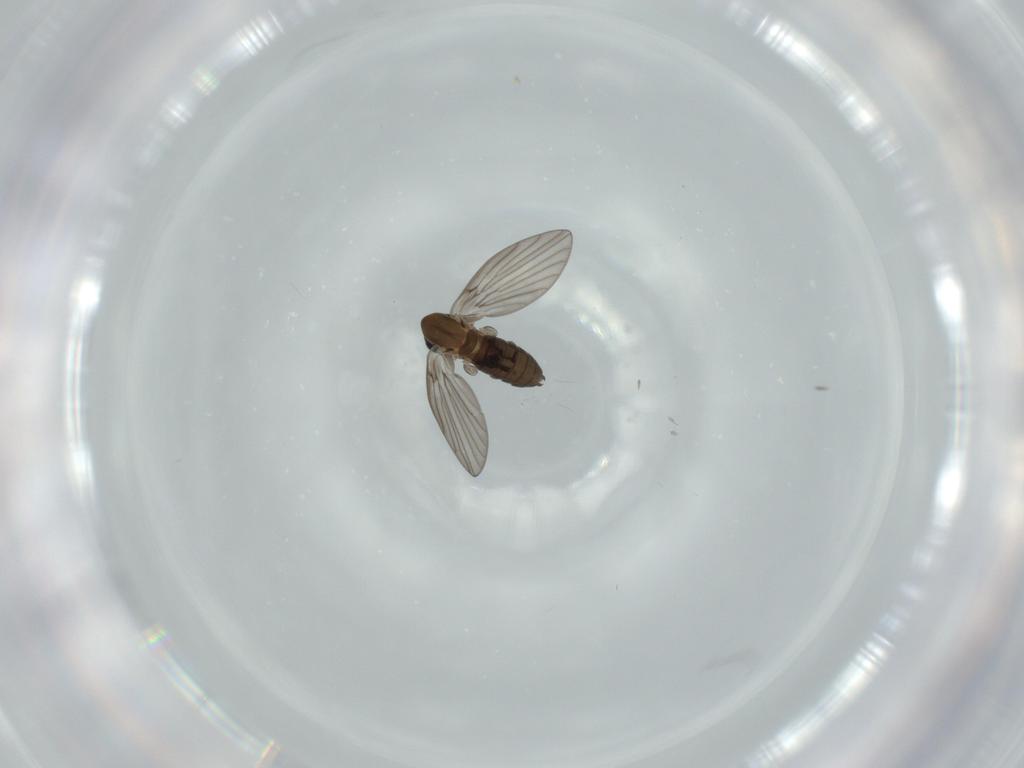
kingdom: Animalia
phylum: Arthropoda
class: Insecta
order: Diptera
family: Psychodidae
